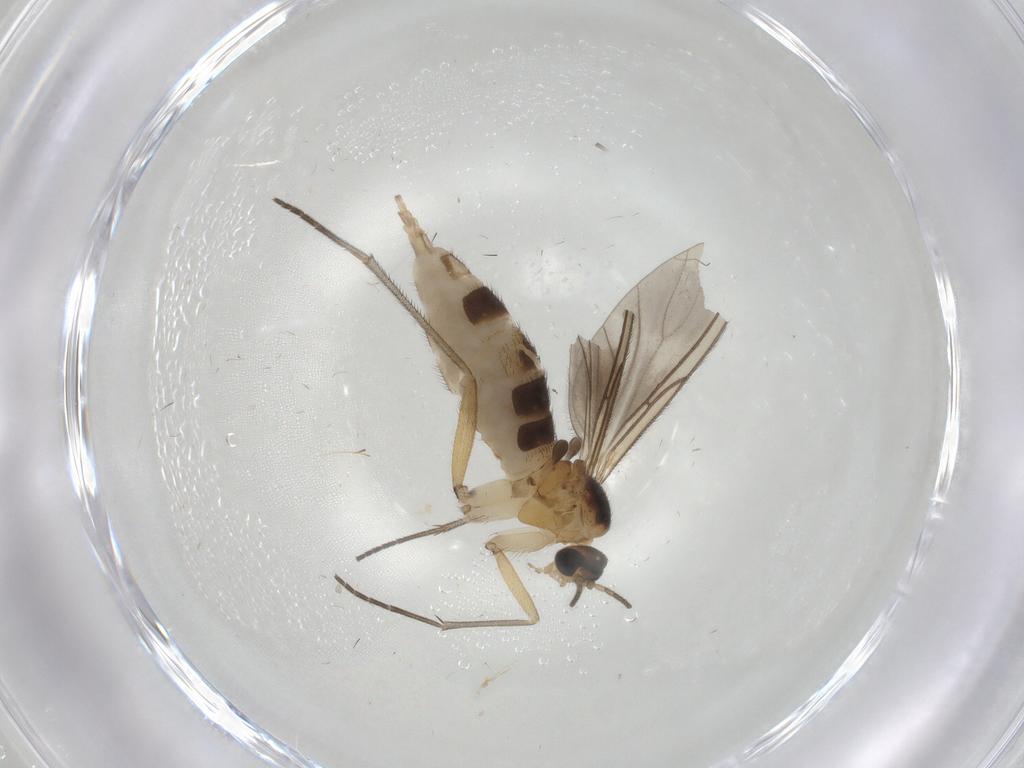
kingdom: Animalia
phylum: Arthropoda
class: Insecta
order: Diptera
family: Sciaridae
